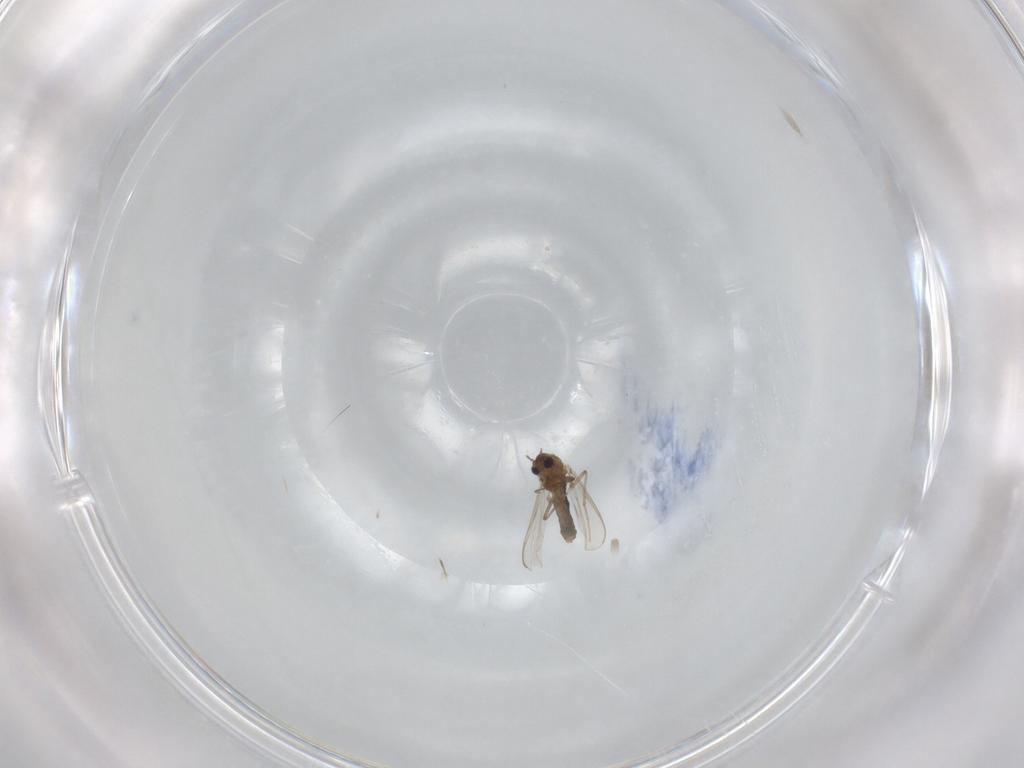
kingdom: Animalia
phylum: Arthropoda
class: Insecta
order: Diptera
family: Chironomidae
